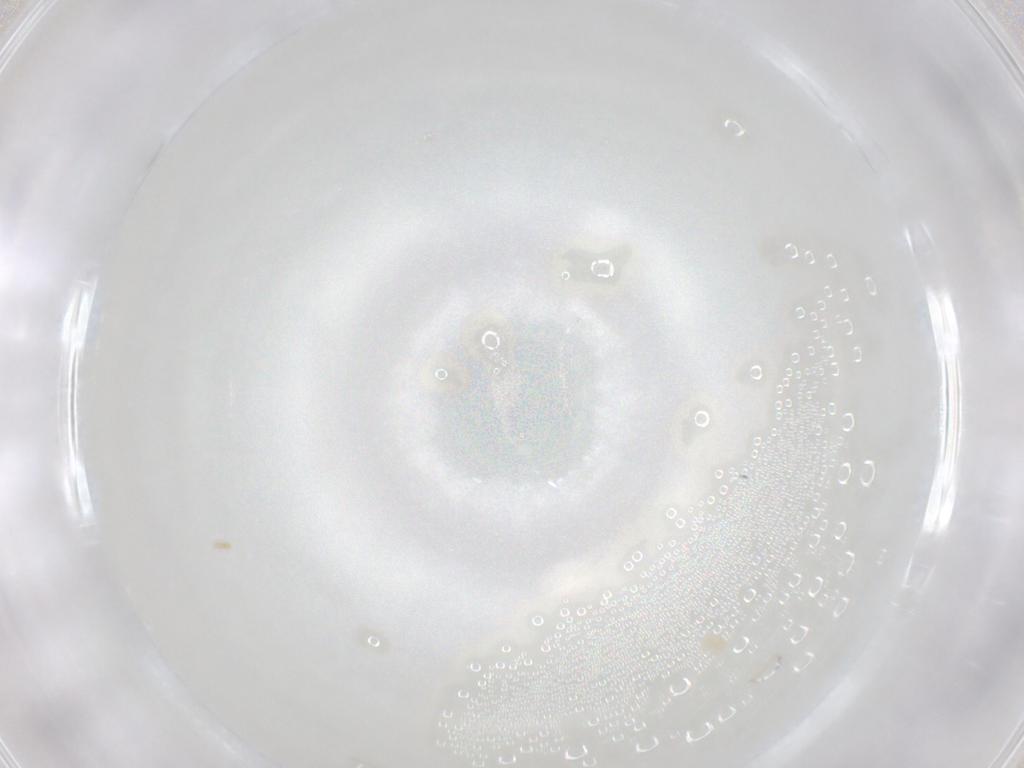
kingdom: Animalia
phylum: Arthropoda
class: Arachnida
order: Trombidiformes
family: Eupodidae
